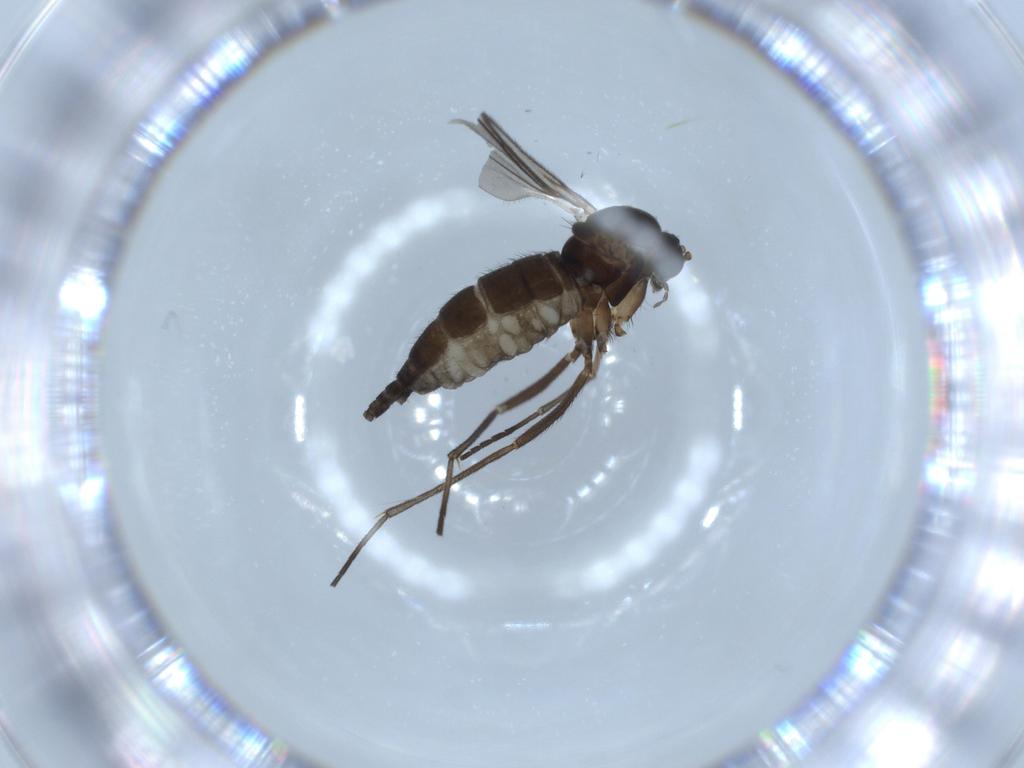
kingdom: Animalia
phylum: Arthropoda
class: Insecta
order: Diptera
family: Sciaridae
